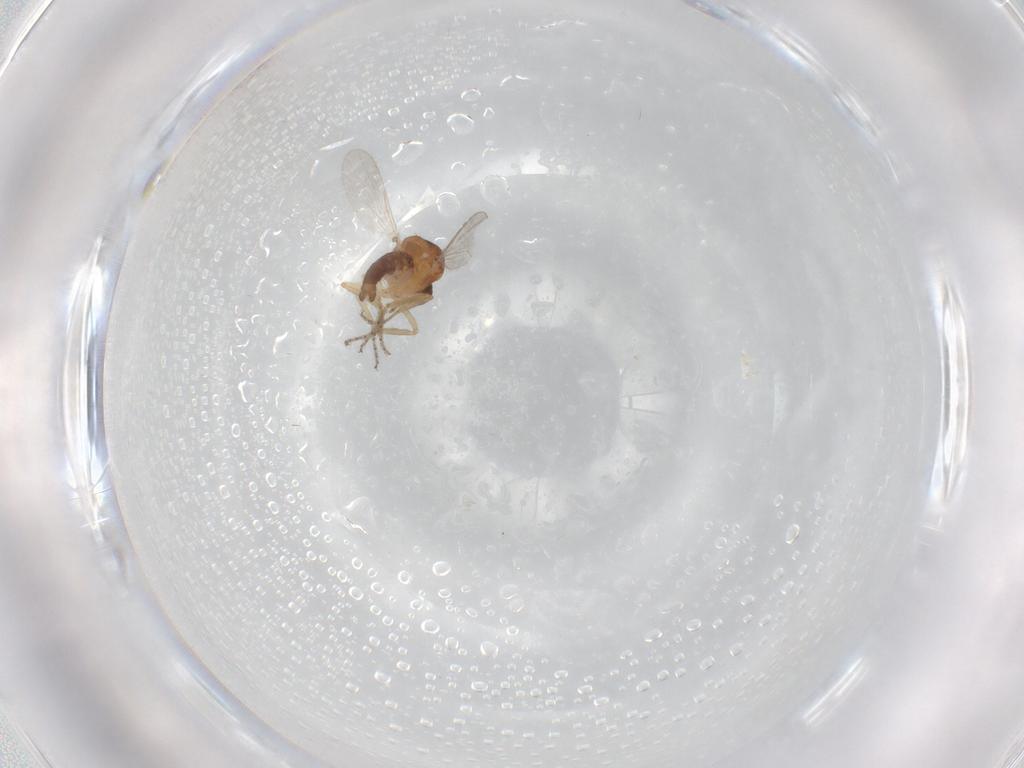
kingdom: Animalia
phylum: Arthropoda
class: Insecta
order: Diptera
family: Ceratopogonidae
